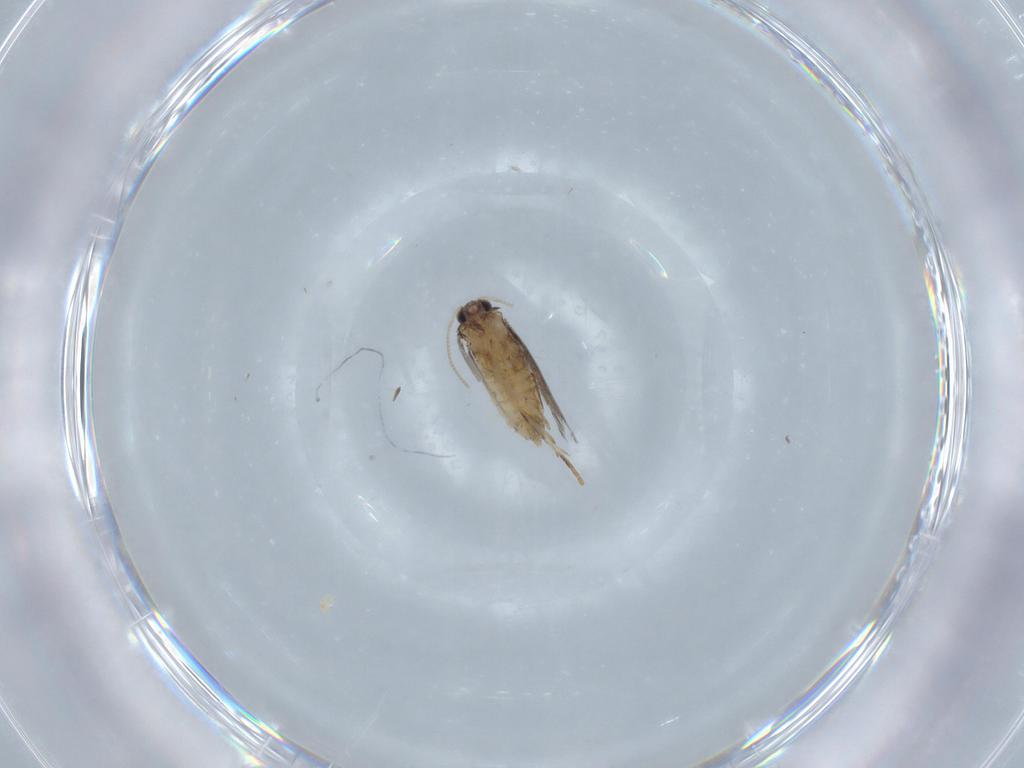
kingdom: Animalia
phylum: Arthropoda
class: Insecta
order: Lepidoptera
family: Nepticulidae
